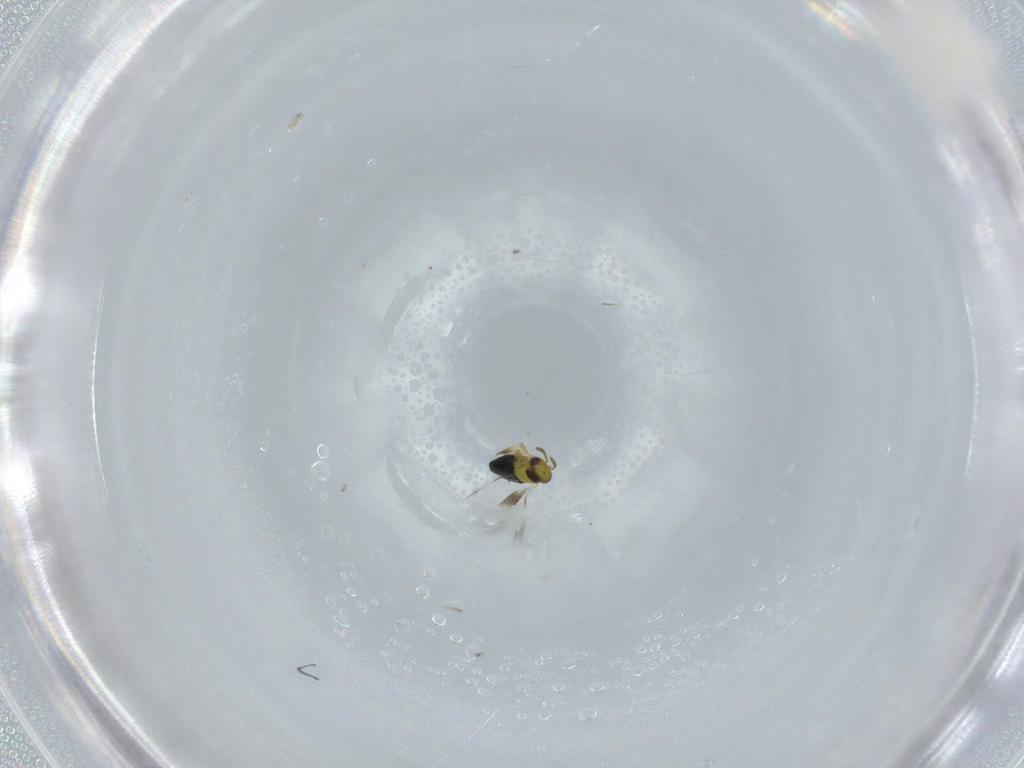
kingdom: Animalia
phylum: Arthropoda
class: Insecta
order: Hymenoptera
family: Signiphoridae
